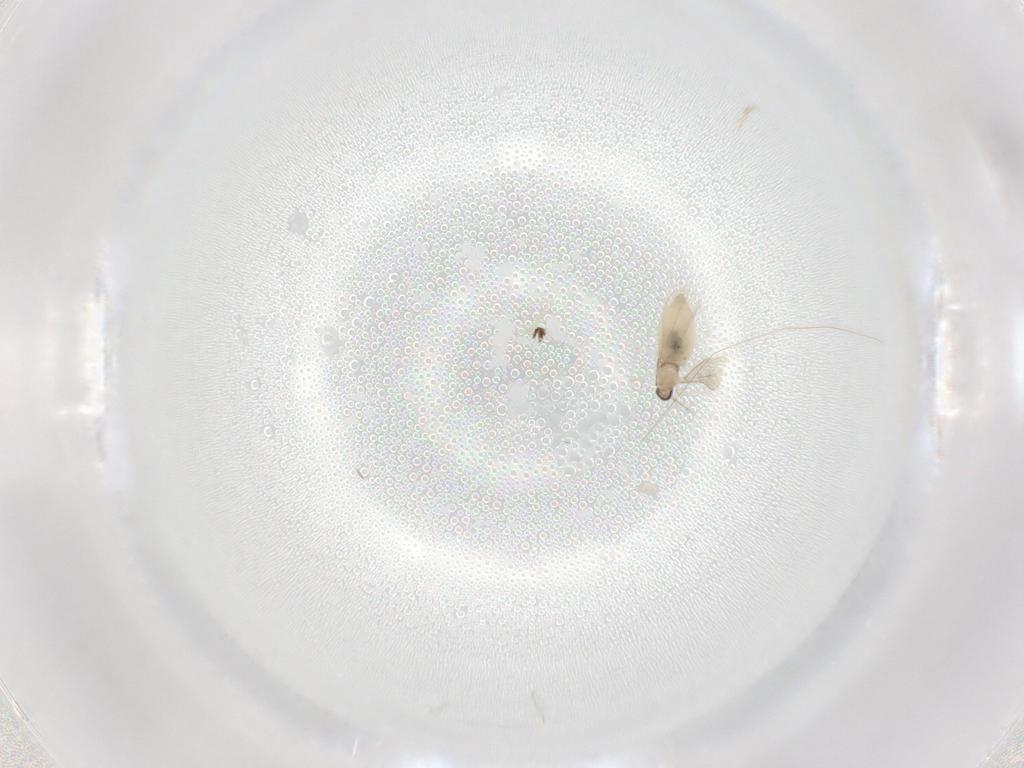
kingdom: Animalia
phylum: Arthropoda
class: Insecta
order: Diptera
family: Cecidomyiidae
